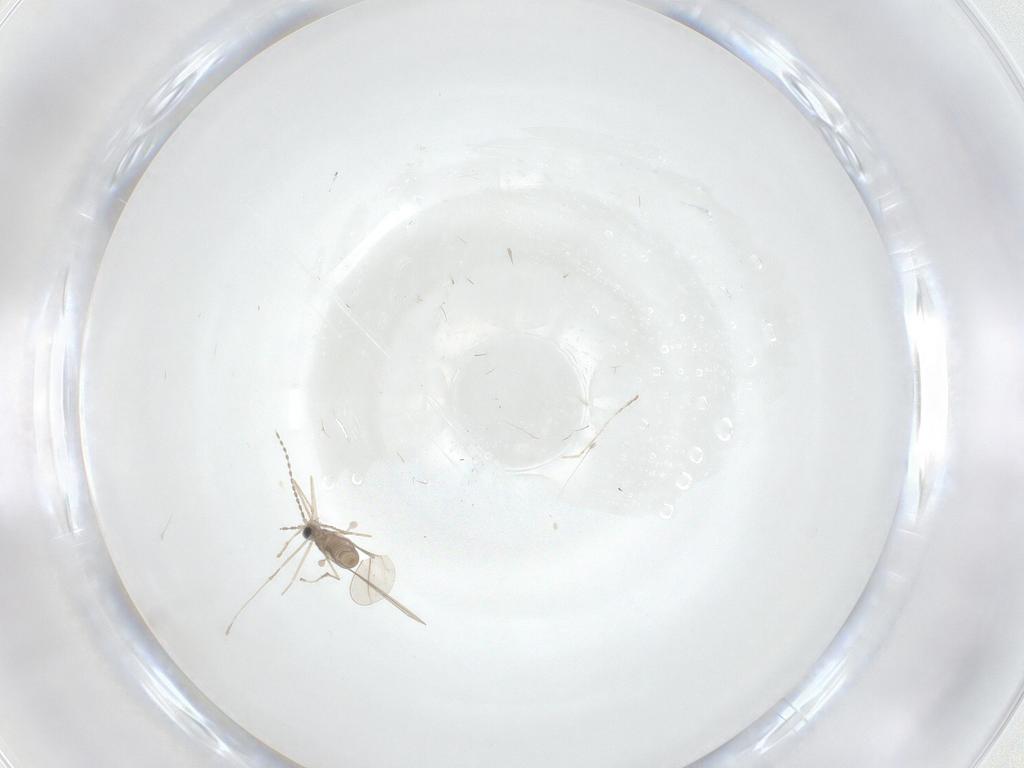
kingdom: Animalia
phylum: Arthropoda
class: Insecta
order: Diptera
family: Cecidomyiidae
